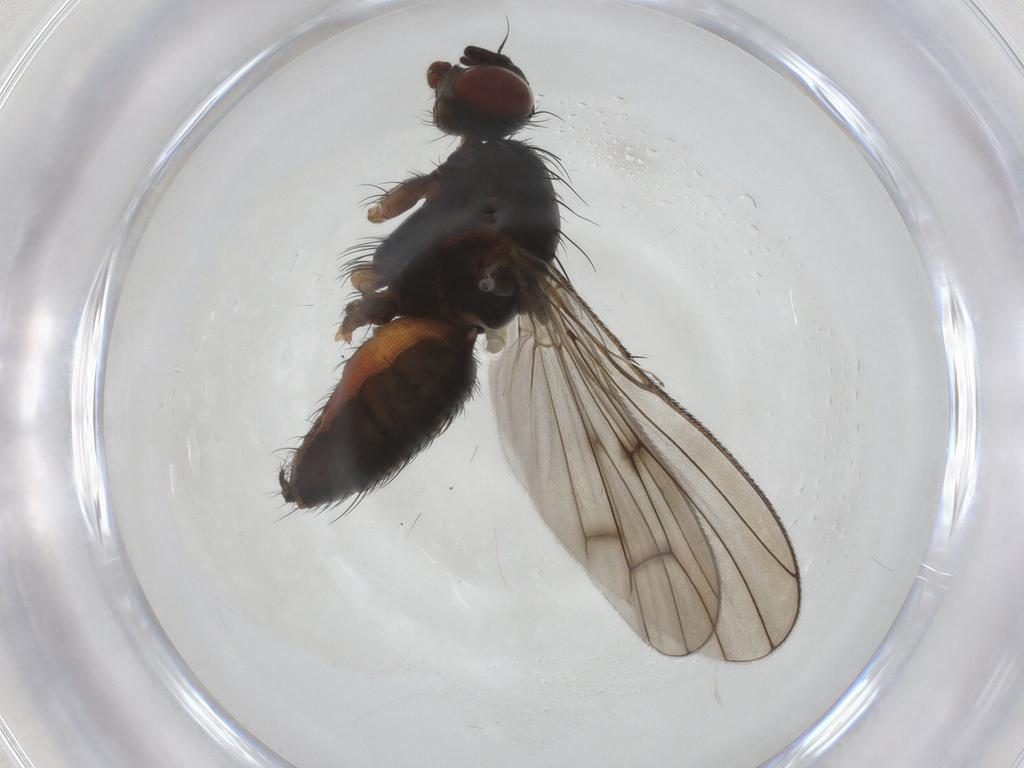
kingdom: Animalia
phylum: Arthropoda
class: Insecta
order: Diptera
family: Anthomyiidae
